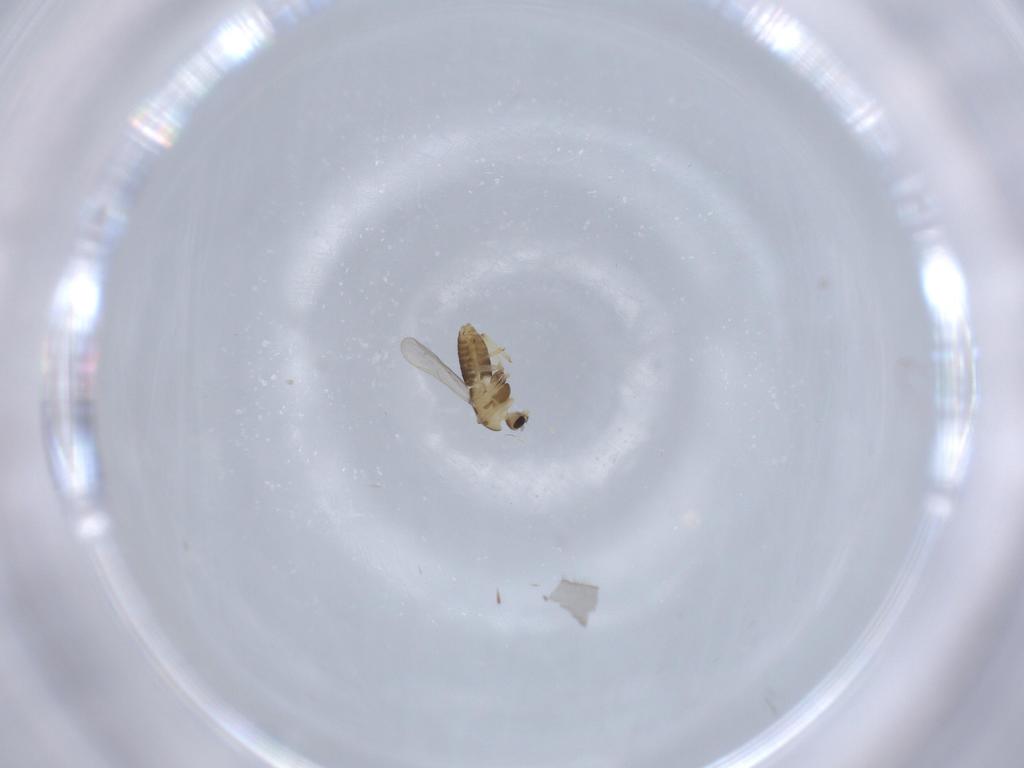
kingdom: Animalia
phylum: Arthropoda
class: Insecta
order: Diptera
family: Chironomidae
